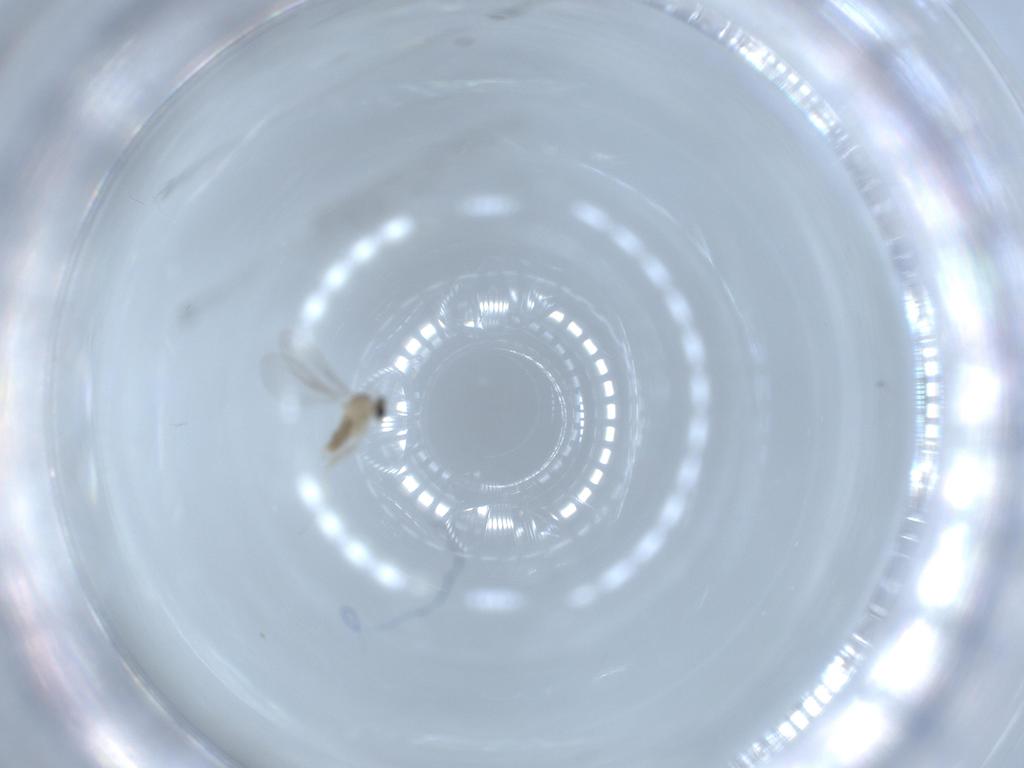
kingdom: Animalia
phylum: Arthropoda
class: Insecta
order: Diptera
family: Cecidomyiidae
